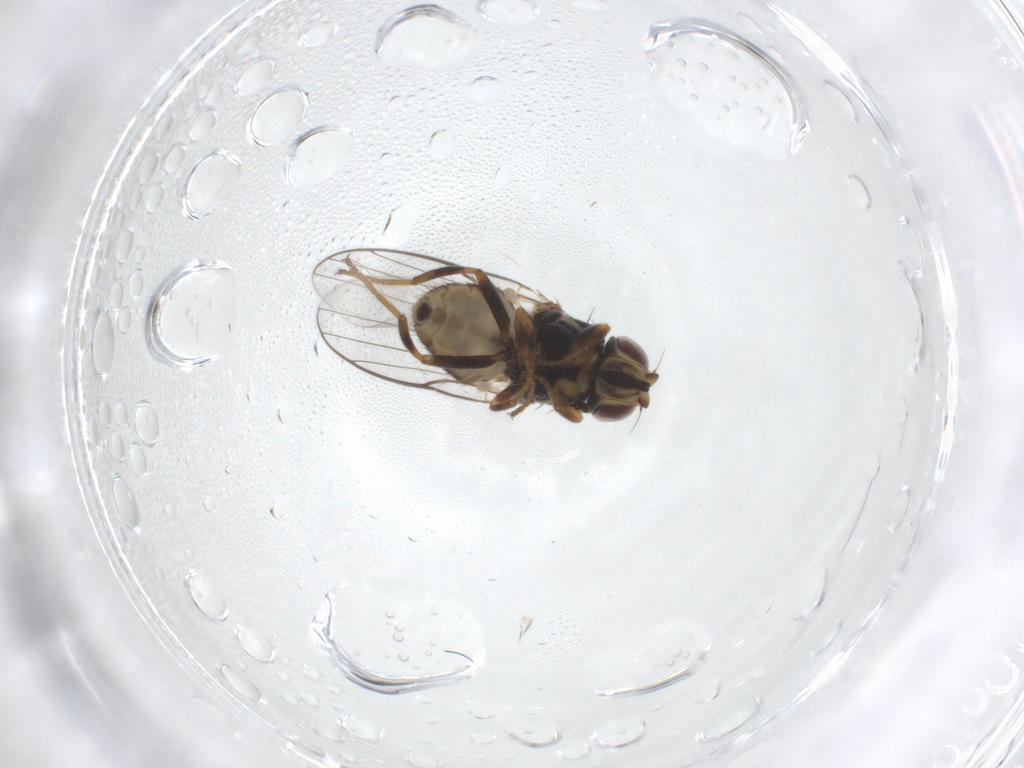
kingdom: Animalia
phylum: Arthropoda
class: Insecta
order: Diptera
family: Chloropidae
